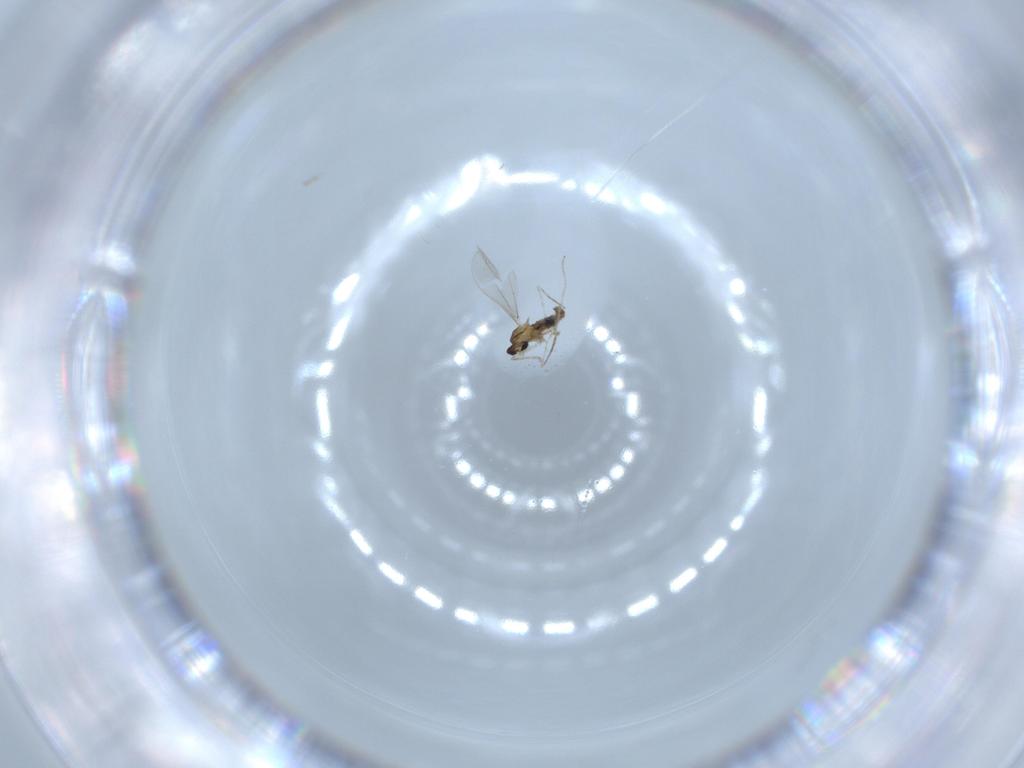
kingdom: Animalia
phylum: Arthropoda
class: Insecta
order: Diptera
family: Cecidomyiidae
